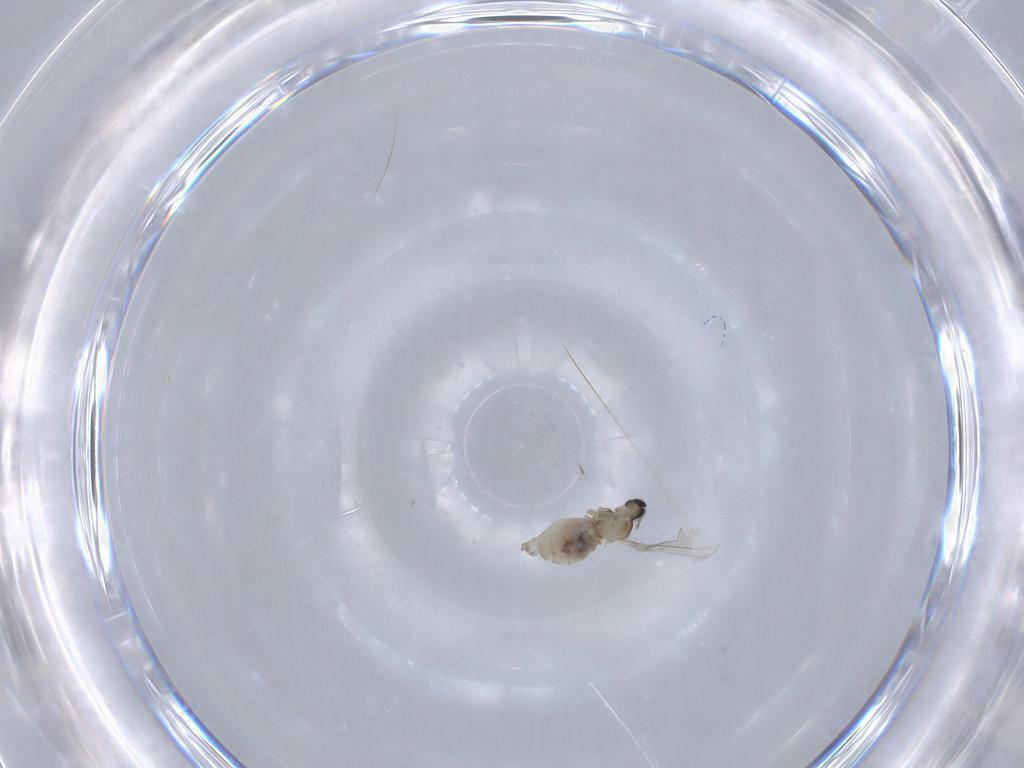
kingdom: Animalia
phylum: Arthropoda
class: Insecta
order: Diptera
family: Cecidomyiidae
